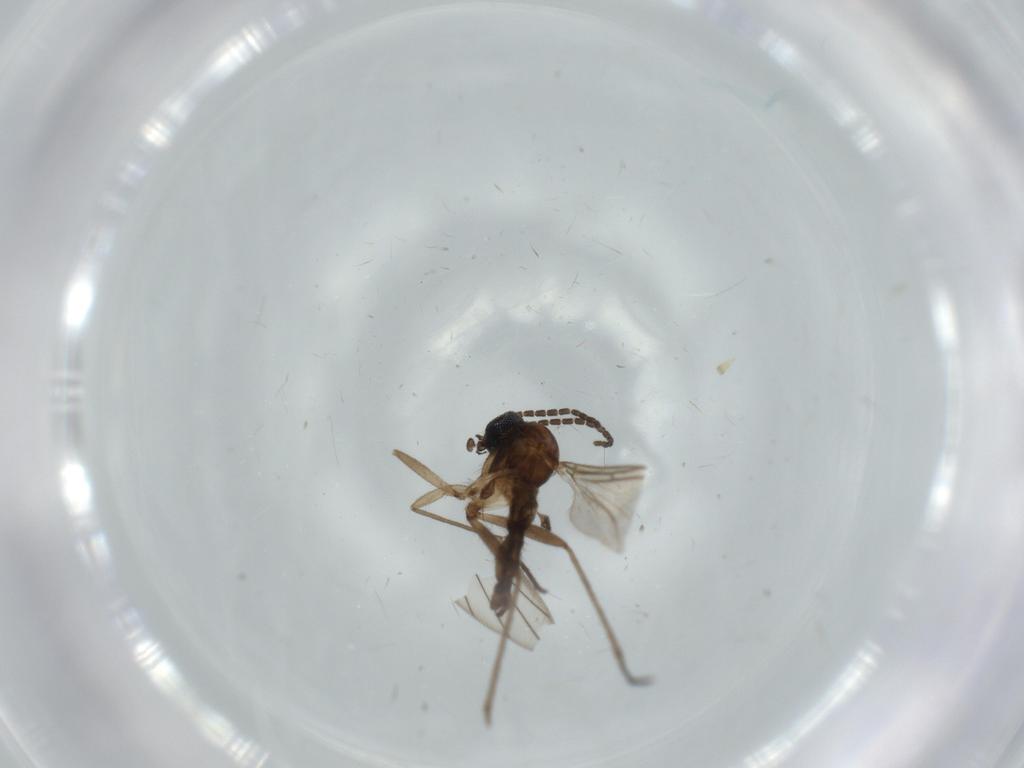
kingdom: Animalia
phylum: Arthropoda
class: Insecta
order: Diptera
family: Sciaridae
